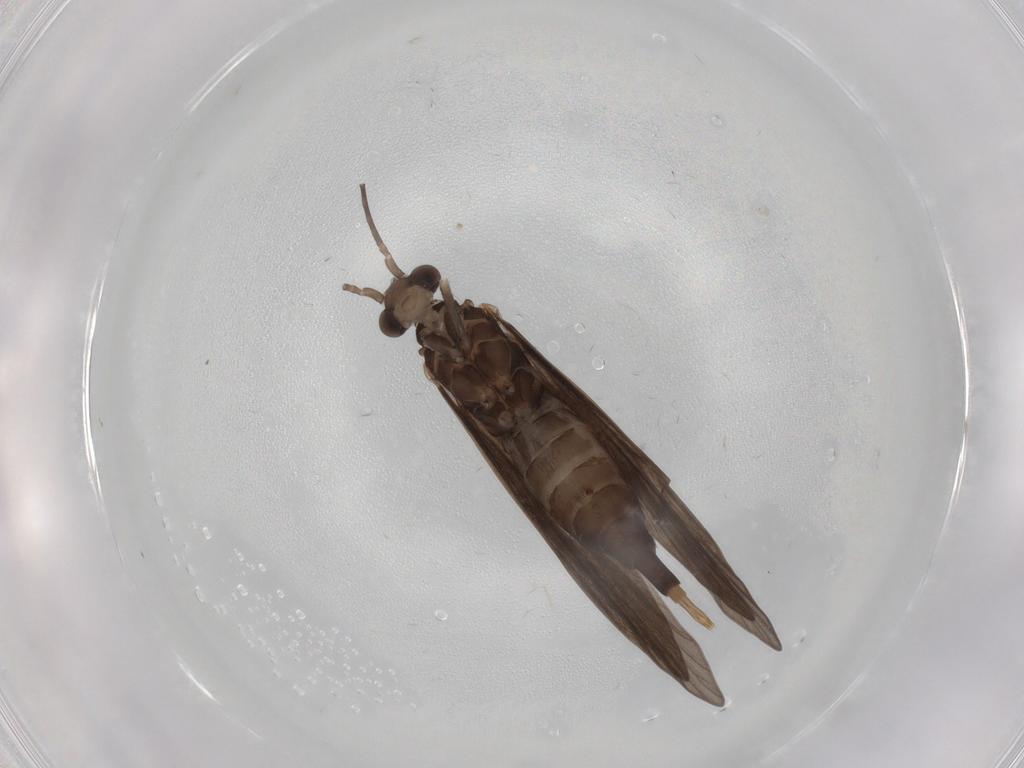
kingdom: Animalia
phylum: Arthropoda
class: Insecta
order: Trichoptera
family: Xiphocentronidae
